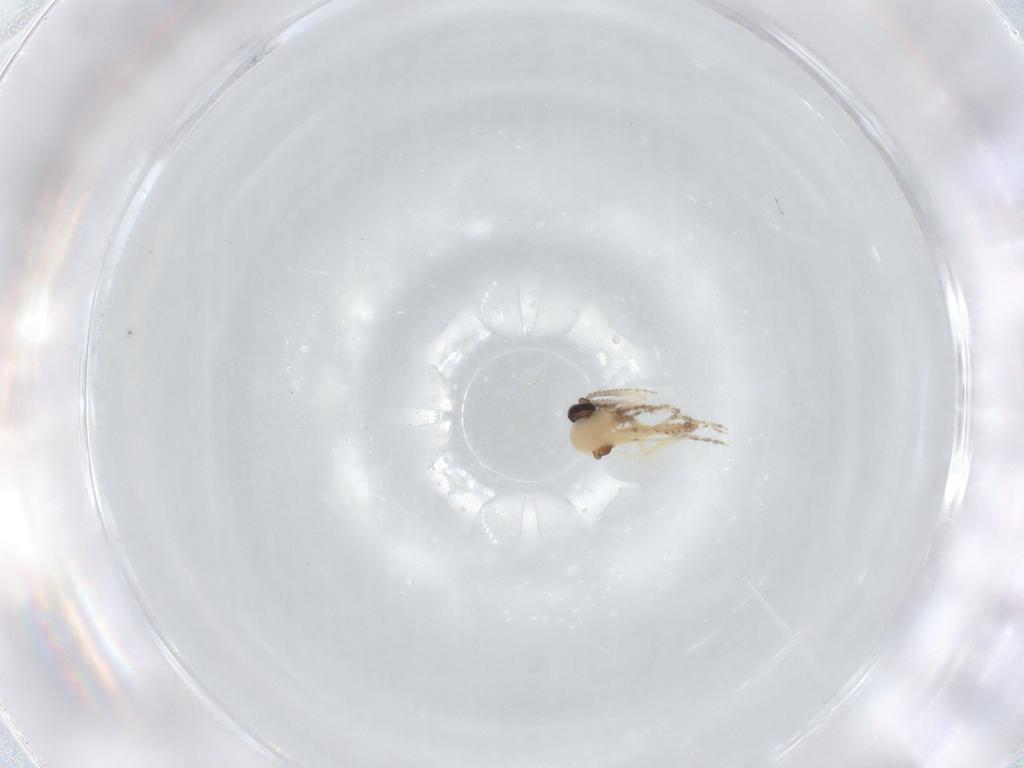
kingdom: Animalia
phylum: Arthropoda
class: Insecta
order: Diptera
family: Ceratopogonidae
